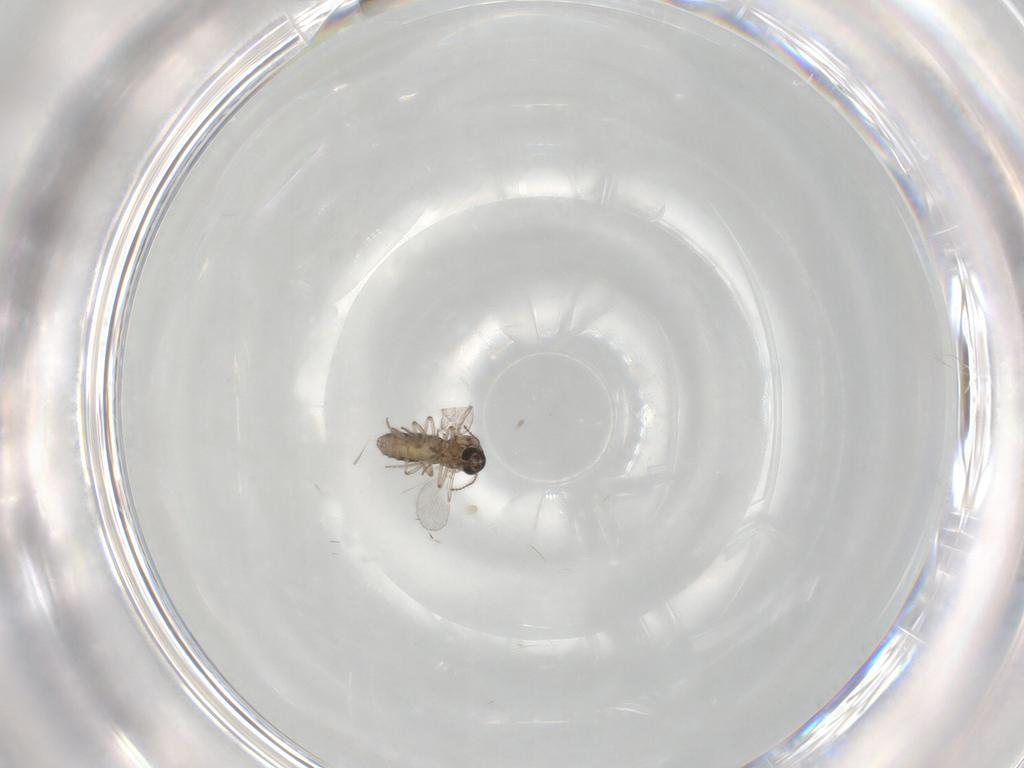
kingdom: Animalia
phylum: Arthropoda
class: Insecta
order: Diptera
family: Ceratopogonidae
